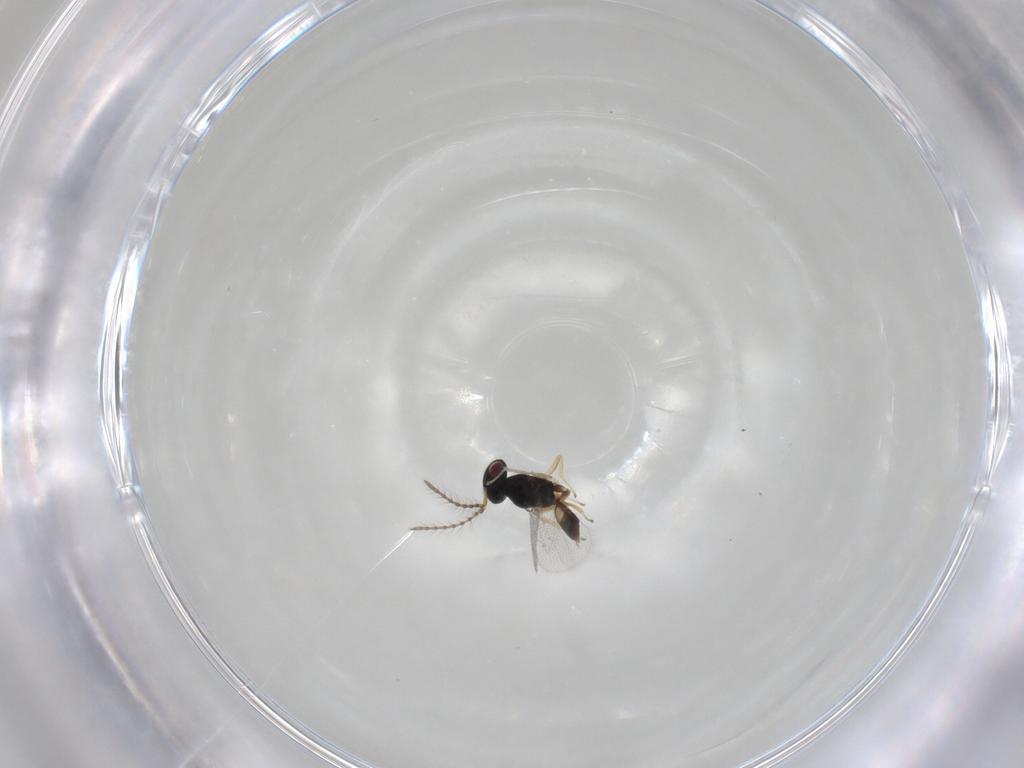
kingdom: Animalia
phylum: Arthropoda
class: Insecta
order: Hymenoptera
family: Pteromalidae
